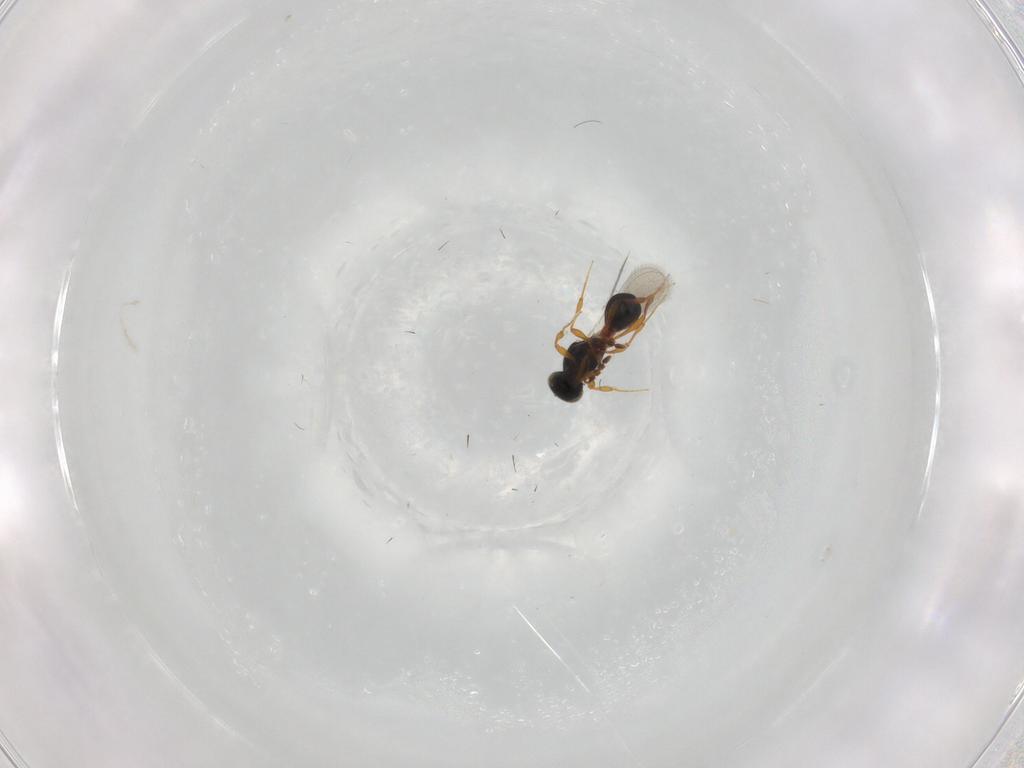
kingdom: Animalia
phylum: Arthropoda
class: Insecta
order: Hymenoptera
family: Platygastridae
